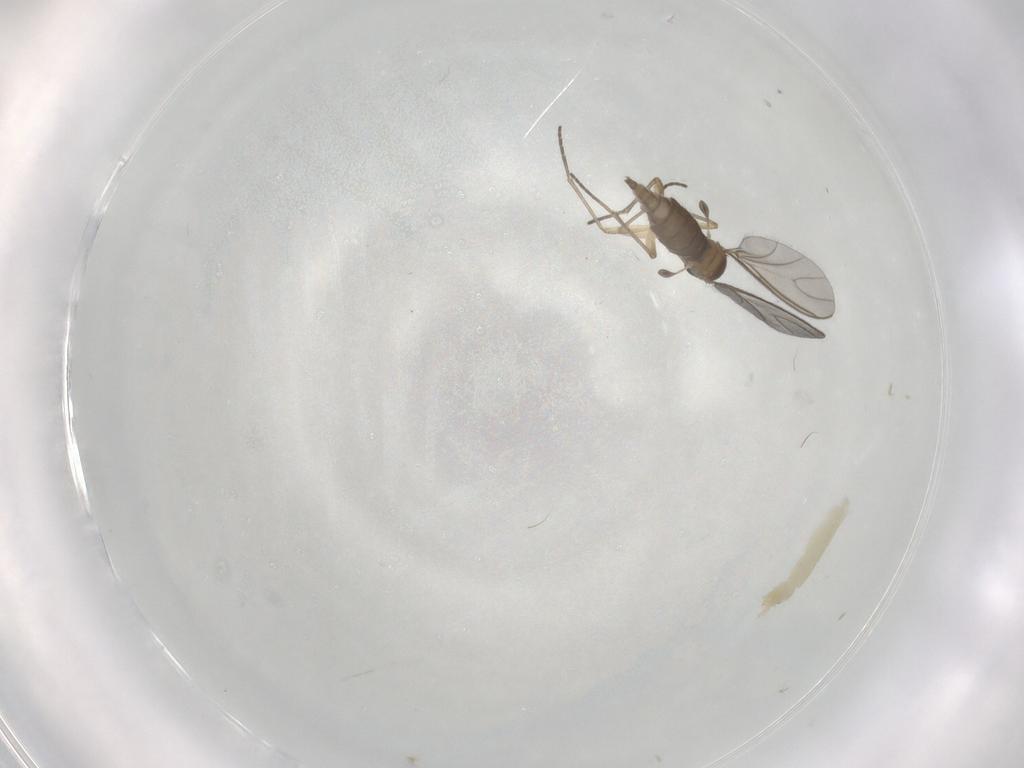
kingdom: Animalia
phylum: Arthropoda
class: Insecta
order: Diptera
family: Chironomidae
